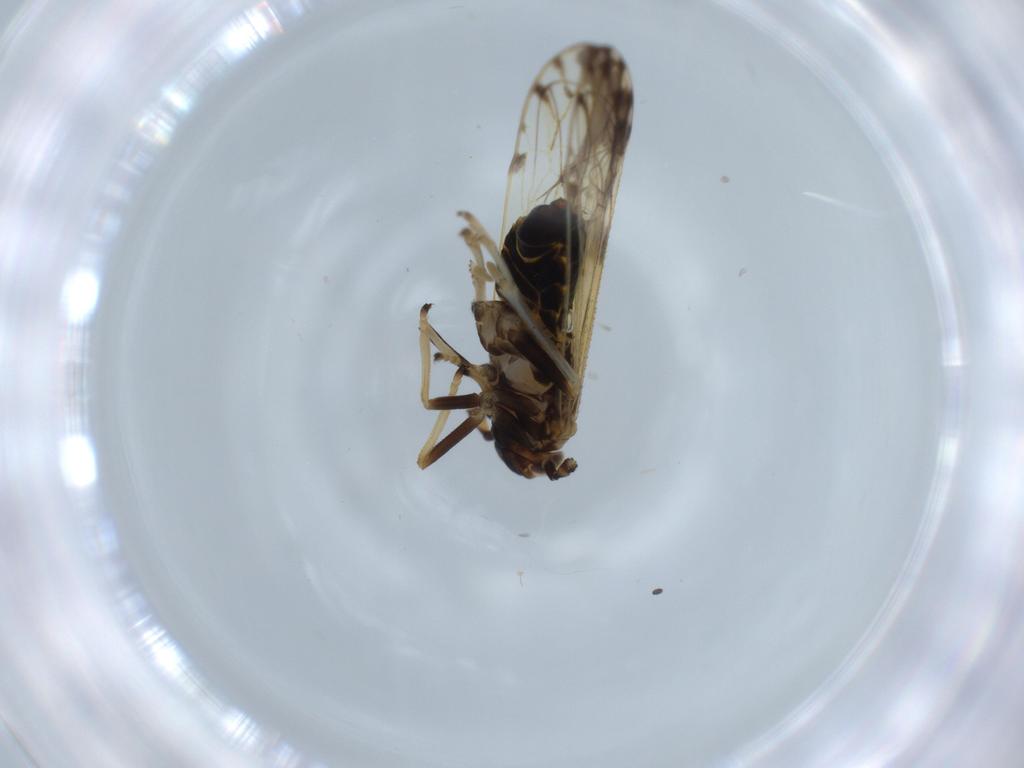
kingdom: Animalia
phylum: Arthropoda
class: Insecta
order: Hemiptera
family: Delphacidae
